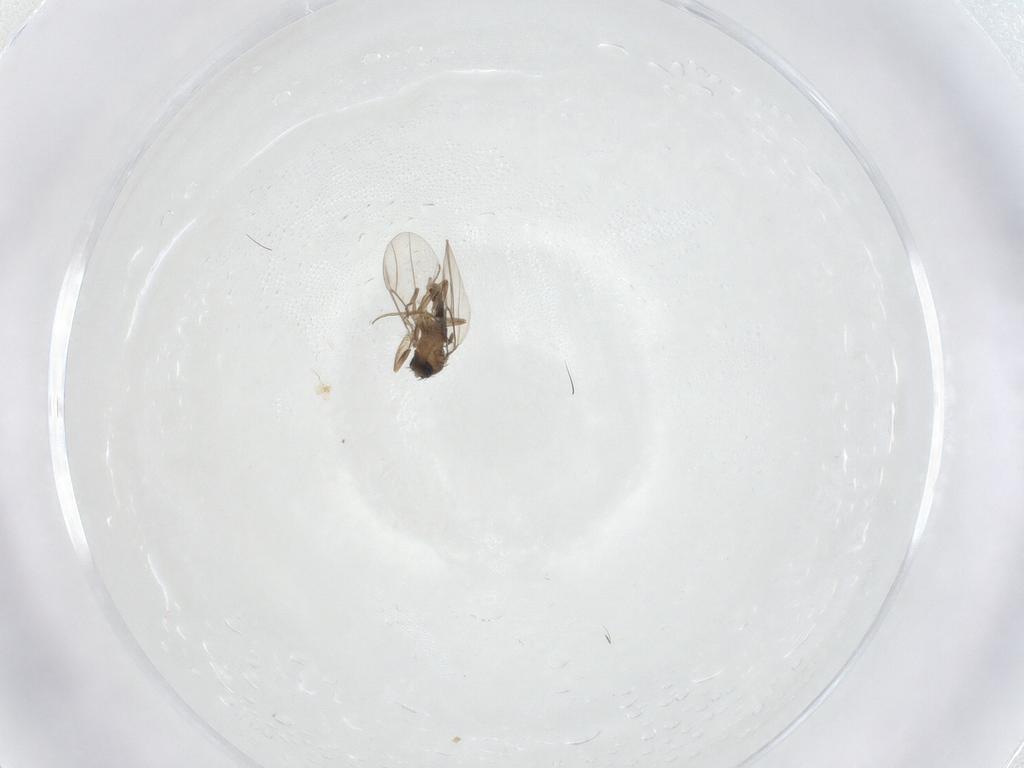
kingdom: Animalia
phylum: Arthropoda
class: Insecta
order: Diptera
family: Phoridae
